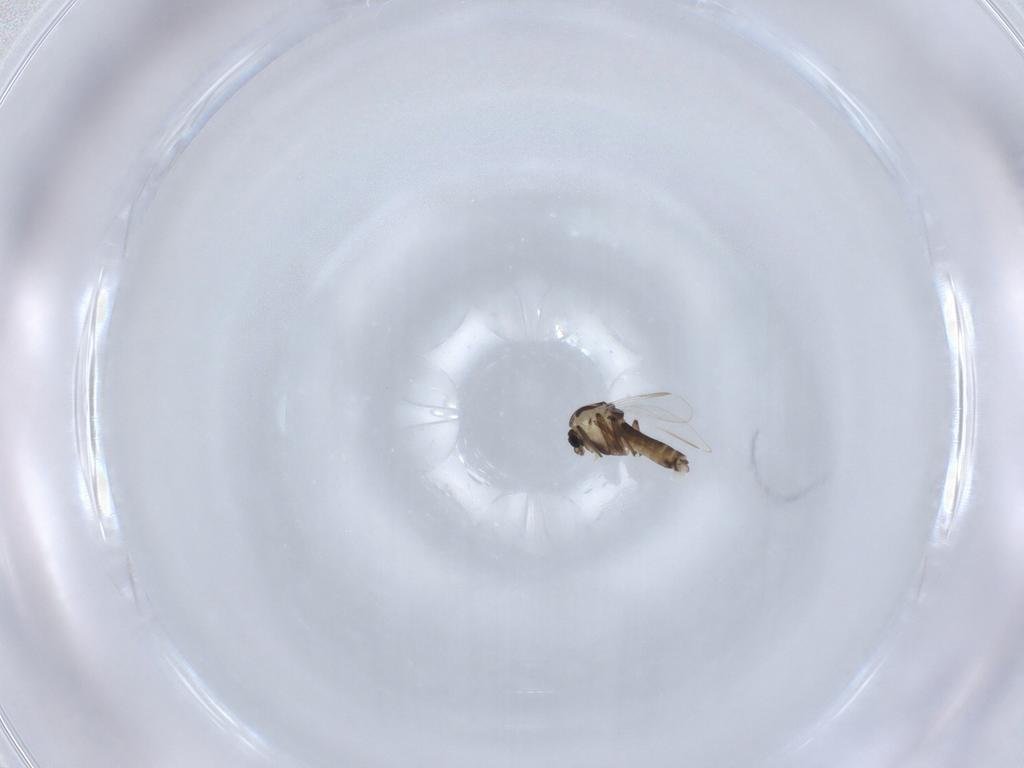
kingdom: Animalia
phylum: Arthropoda
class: Insecta
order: Diptera
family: Chironomidae
